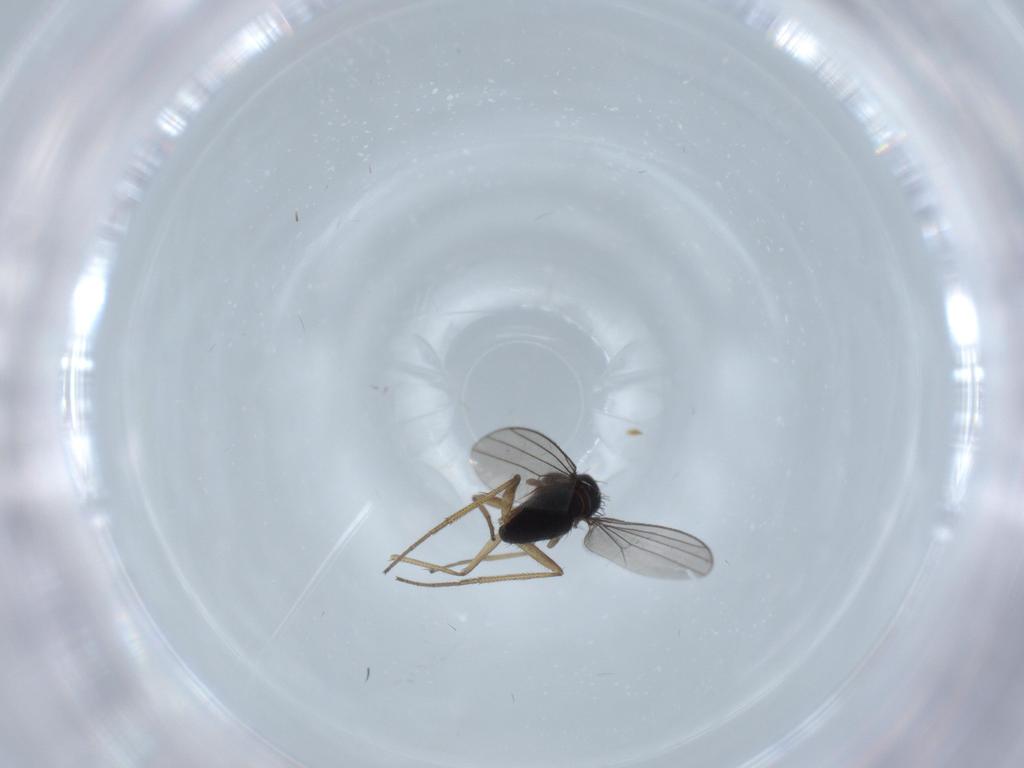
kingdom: Animalia
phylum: Arthropoda
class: Insecta
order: Diptera
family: Dolichopodidae
